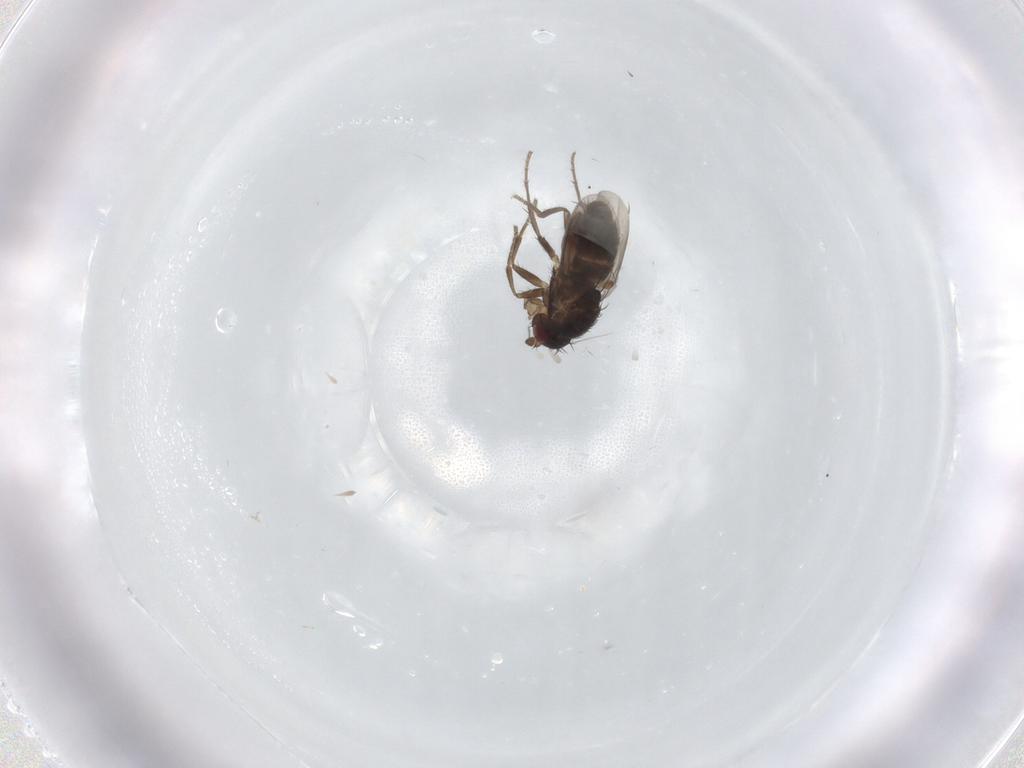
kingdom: Animalia
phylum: Arthropoda
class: Insecta
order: Diptera
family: Sphaeroceridae
